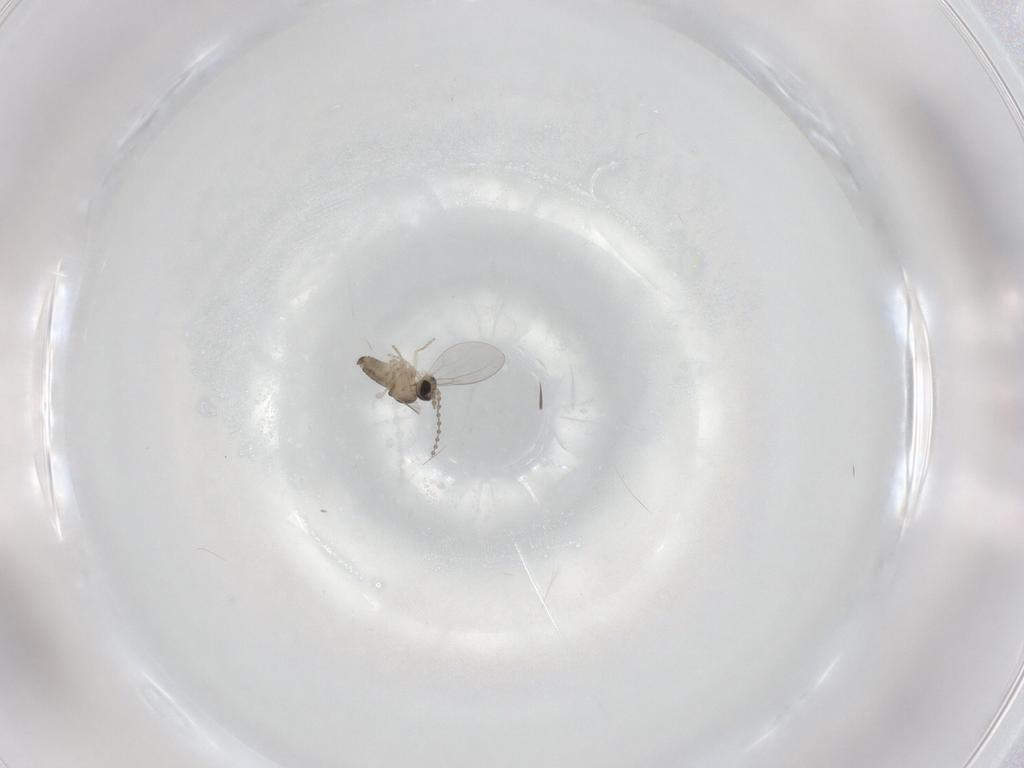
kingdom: Animalia
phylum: Arthropoda
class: Insecta
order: Diptera
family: Cecidomyiidae
